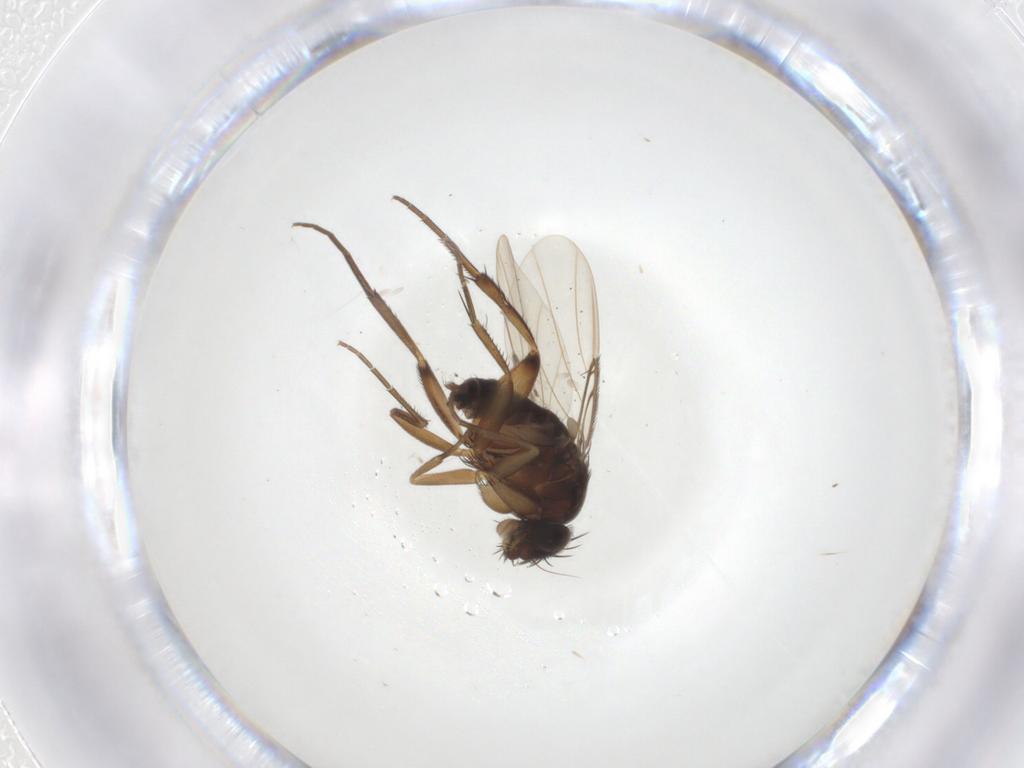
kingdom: Animalia
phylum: Arthropoda
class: Insecta
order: Diptera
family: Phoridae
